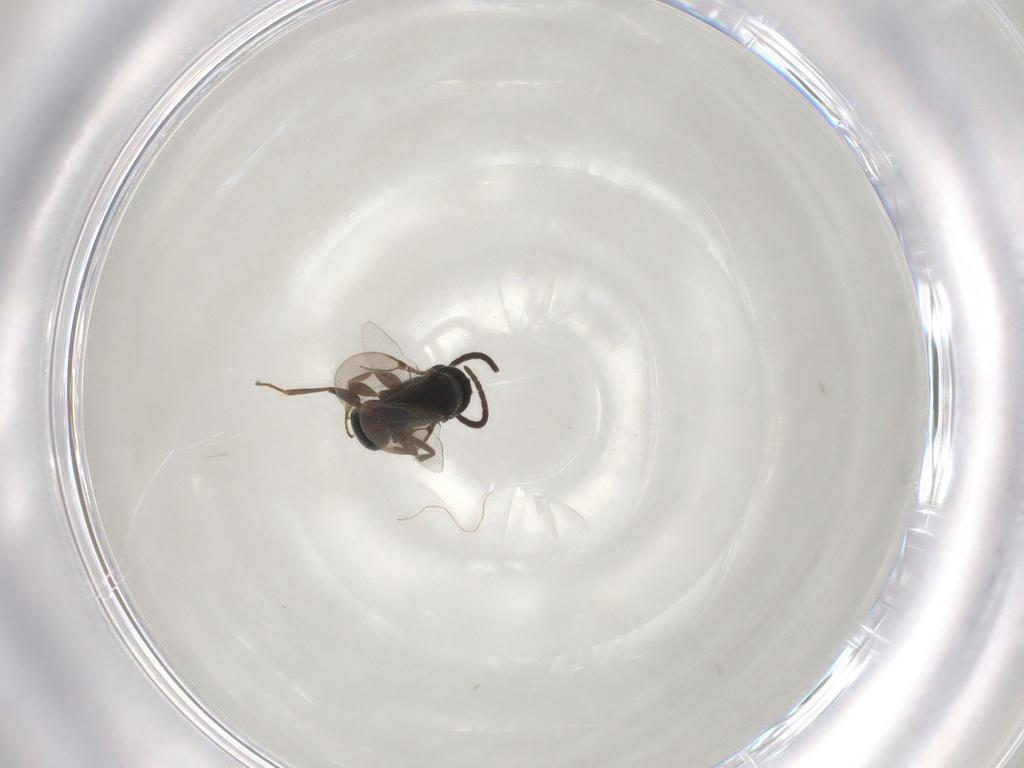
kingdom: Animalia
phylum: Arthropoda
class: Insecta
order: Hymenoptera
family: Bethylidae
